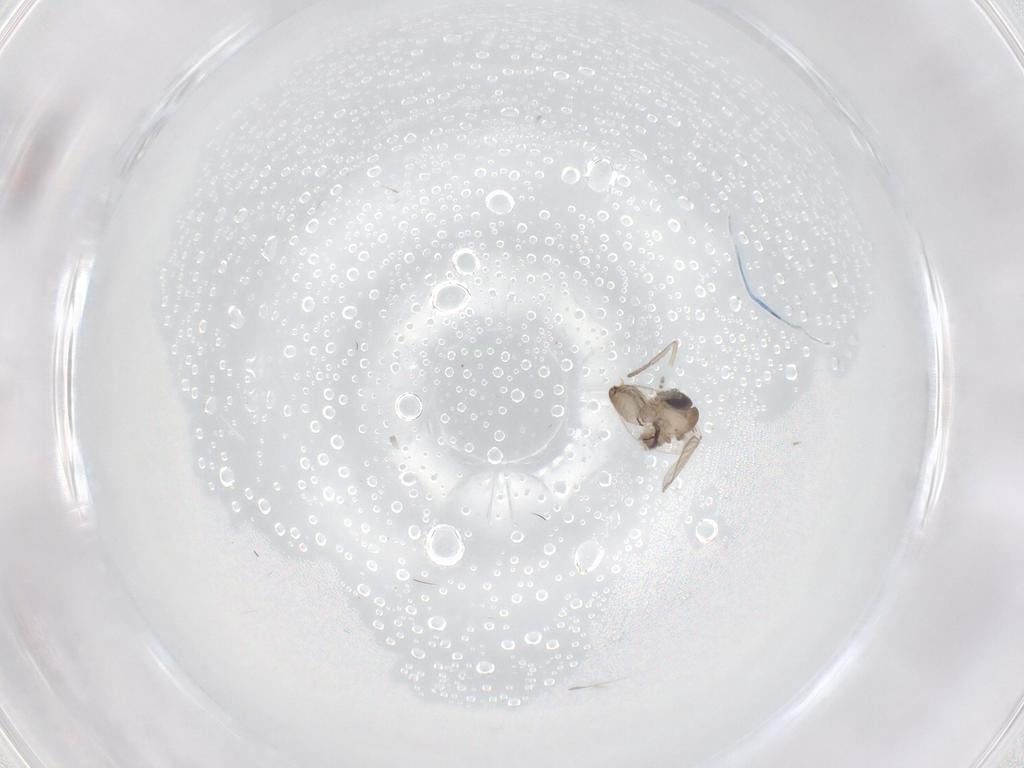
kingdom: Animalia
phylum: Arthropoda
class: Insecta
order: Diptera
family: Psychodidae
